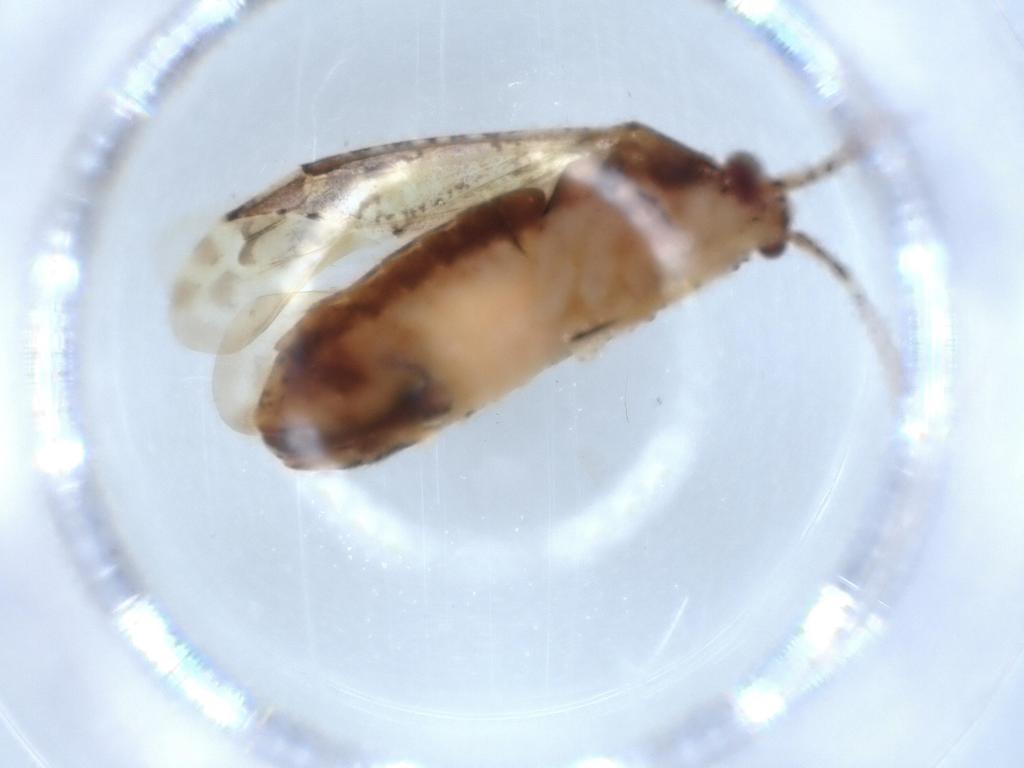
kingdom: Animalia
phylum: Arthropoda
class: Insecta
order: Hemiptera
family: Miridae
